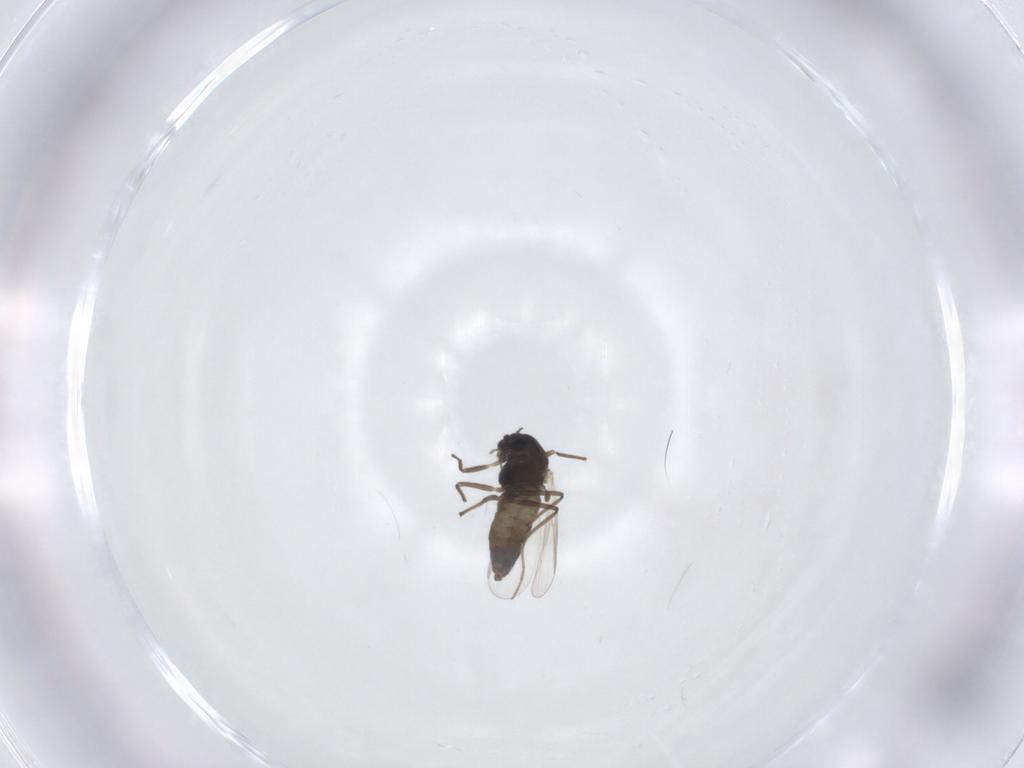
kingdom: Animalia
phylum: Arthropoda
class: Insecta
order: Diptera
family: Chironomidae
